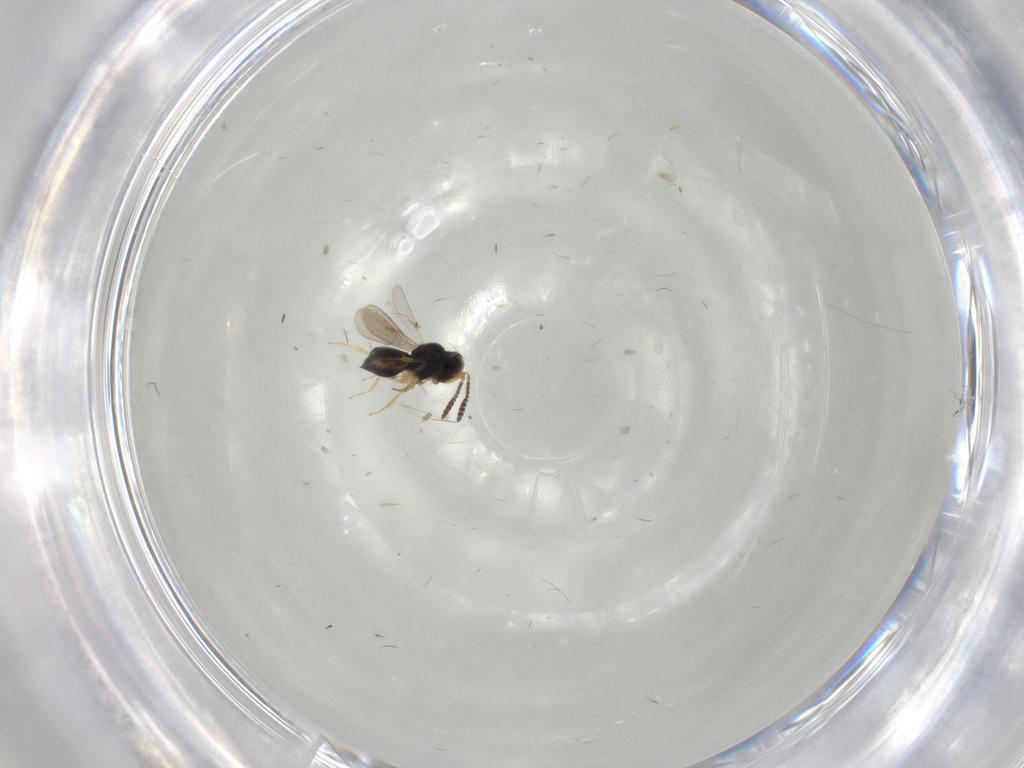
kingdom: Animalia
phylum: Arthropoda
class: Insecta
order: Hymenoptera
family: Scelionidae
